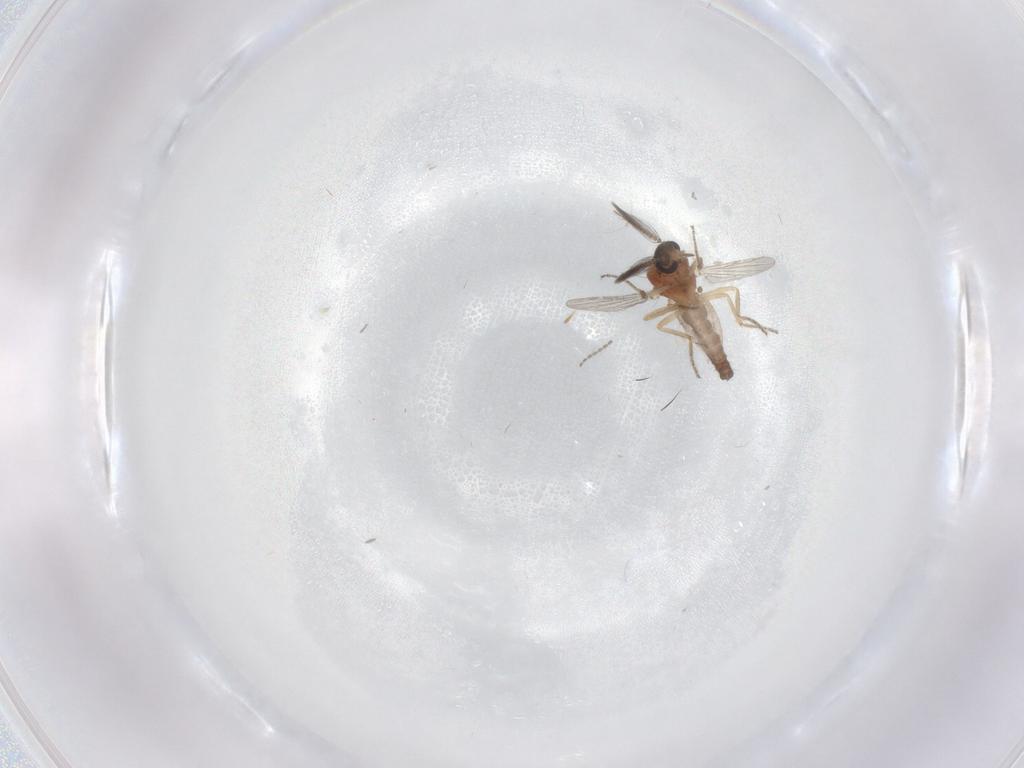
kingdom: Animalia
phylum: Arthropoda
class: Insecta
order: Diptera
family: Ceratopogonidae
